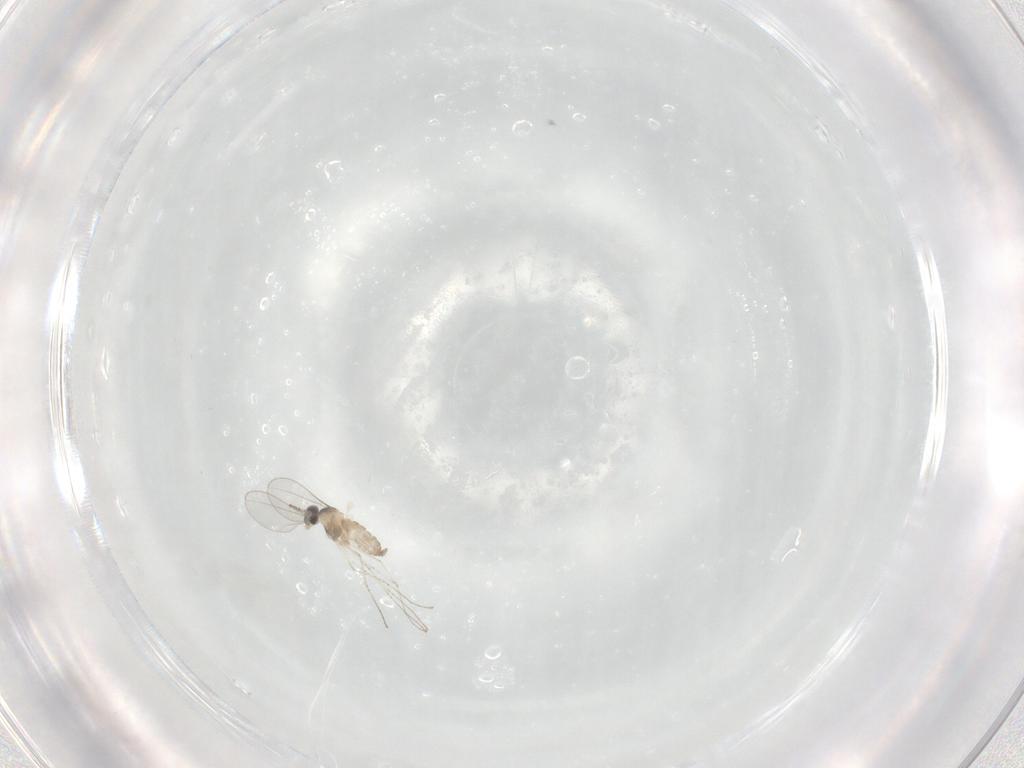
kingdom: Animalia
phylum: Arthropoda
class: Insecta
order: Diptera
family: Cecidomyiidae
